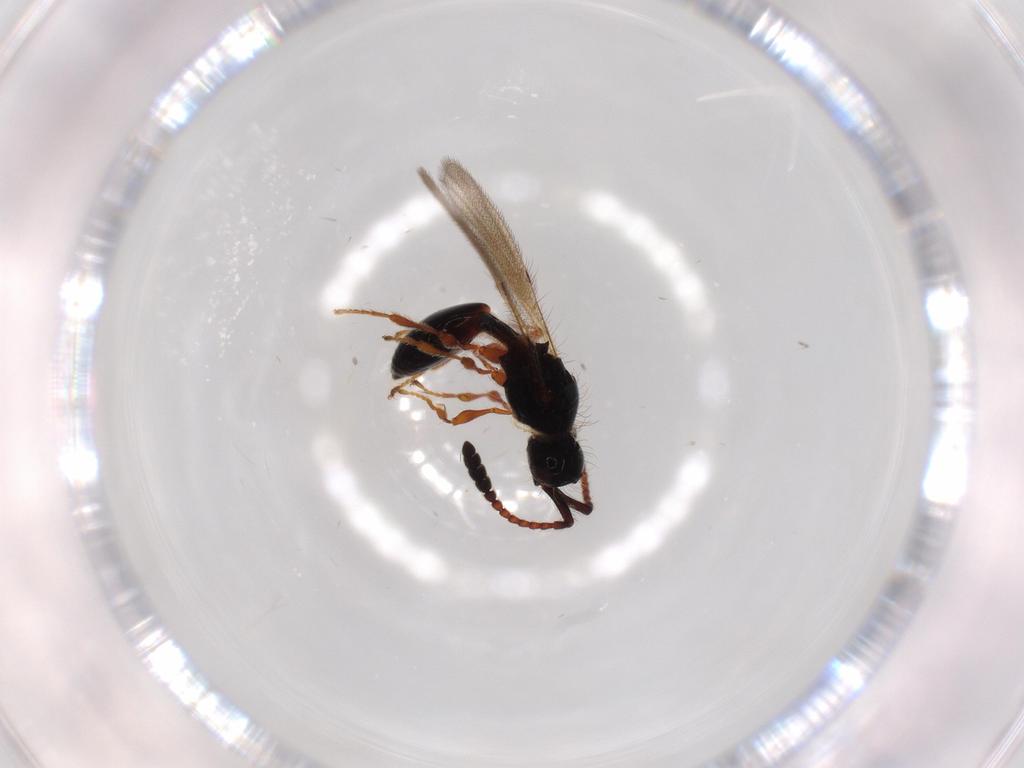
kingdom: Animalia
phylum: Arthropoda
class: Insecta
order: Hymenoptera
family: Diapriidae
